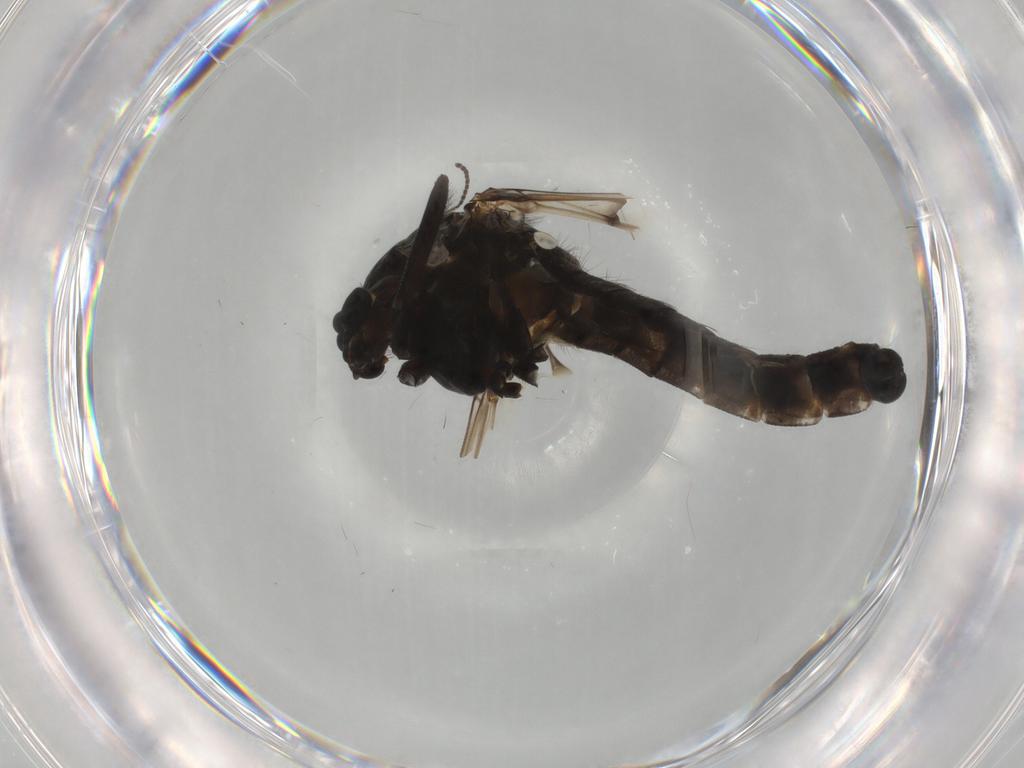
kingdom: Animalia
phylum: Arthropoda
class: Insecta
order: Diptera
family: Chironomidae
